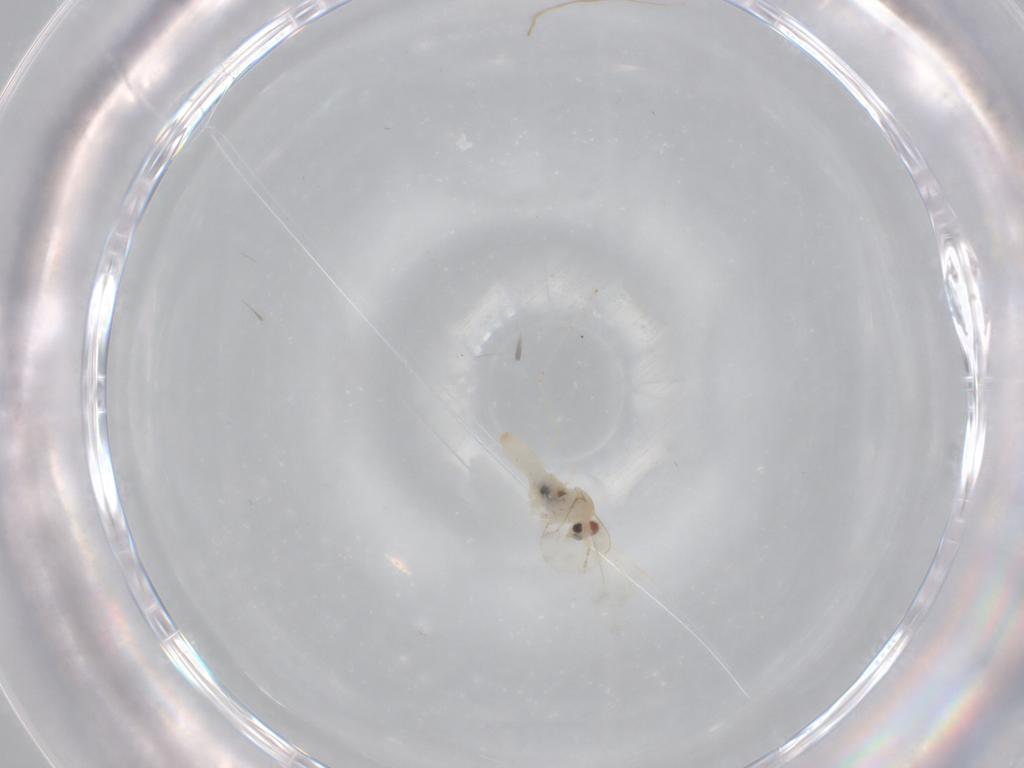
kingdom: Animalia
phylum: Arthropoda
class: Insecta
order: Diptera
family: Cecidomyiidae
